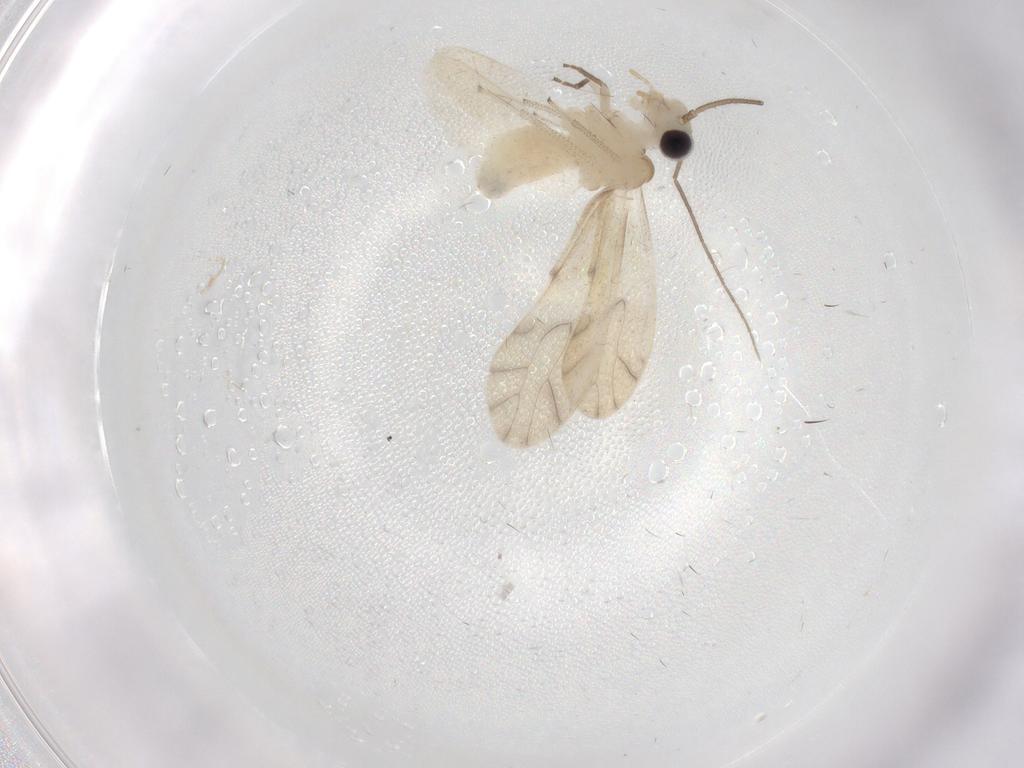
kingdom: Animalia
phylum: Arthropoda
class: Insecta
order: Psocodea
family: Caeciliusidae
